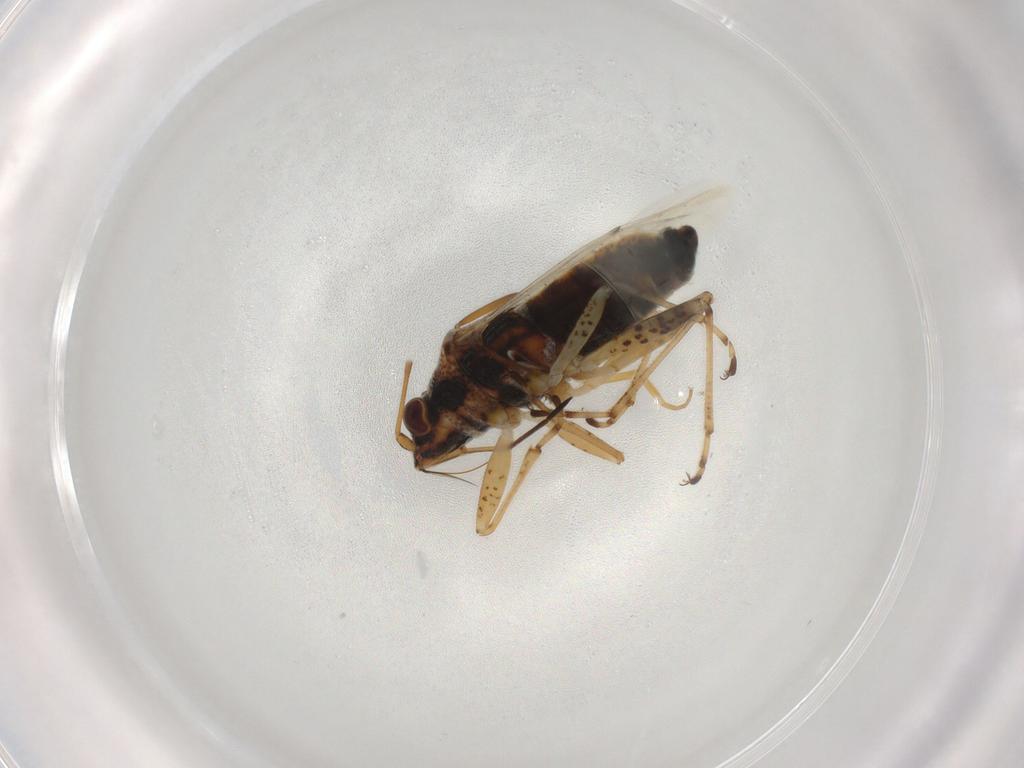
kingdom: Animalia
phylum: Arthropoda
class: Insecta
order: Hemiptera
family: Lygaeidae
